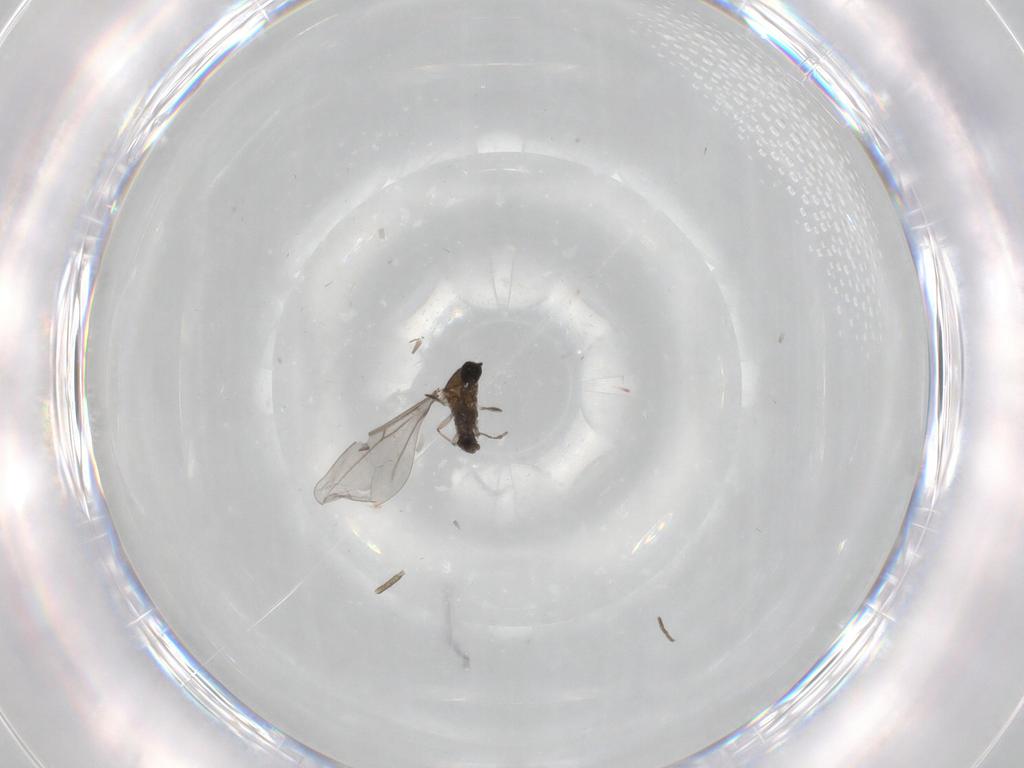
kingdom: Animalia
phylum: Arthropoda
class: Insecta
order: Diptera
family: Cecidomyiidae
